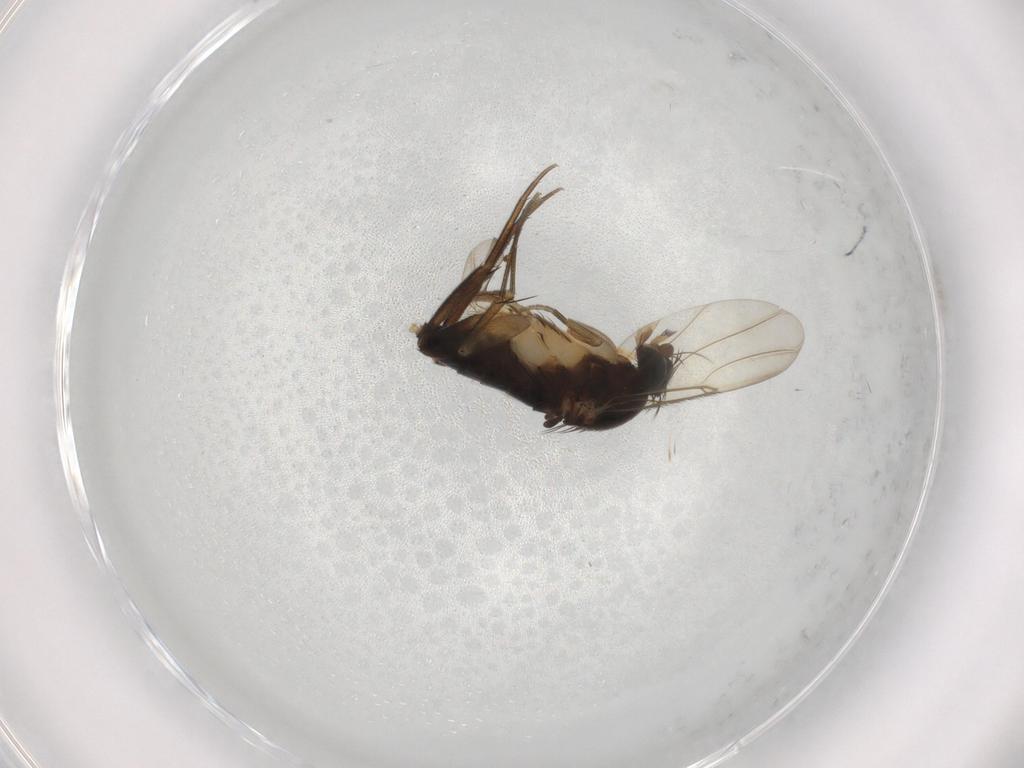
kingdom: Animalia
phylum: Arthropoda
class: Insecta
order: Diptera
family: Phoridae
